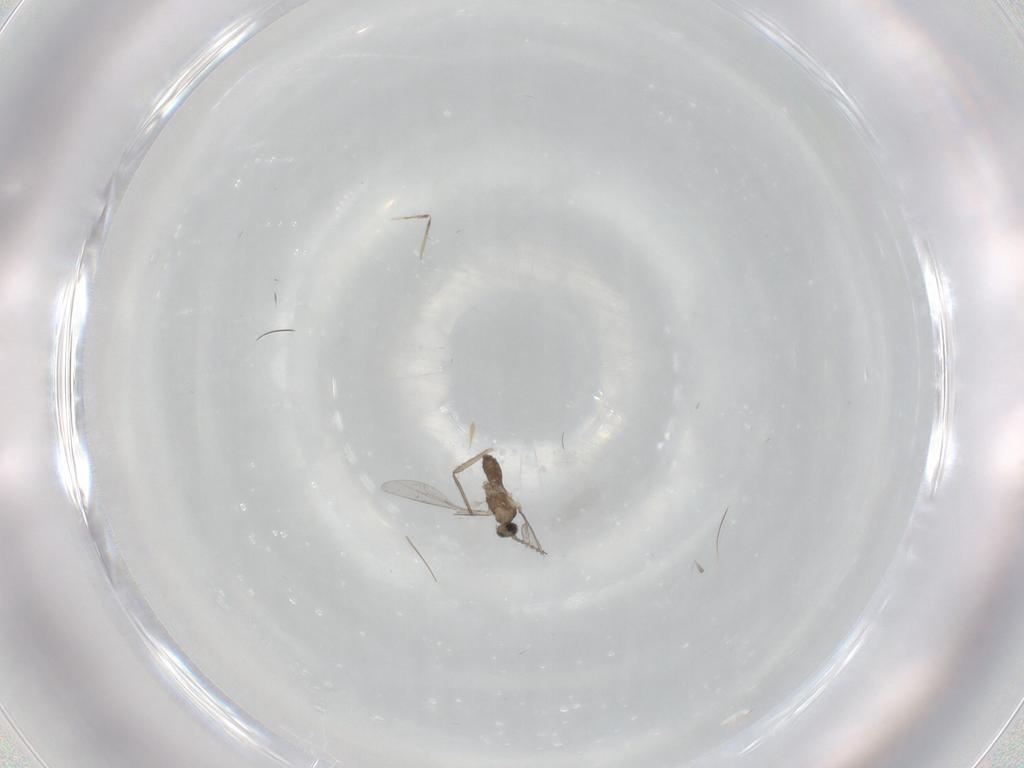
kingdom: Animalia
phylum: Arthropoda
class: Insecta
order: Diptera
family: Cecidomyiidae
